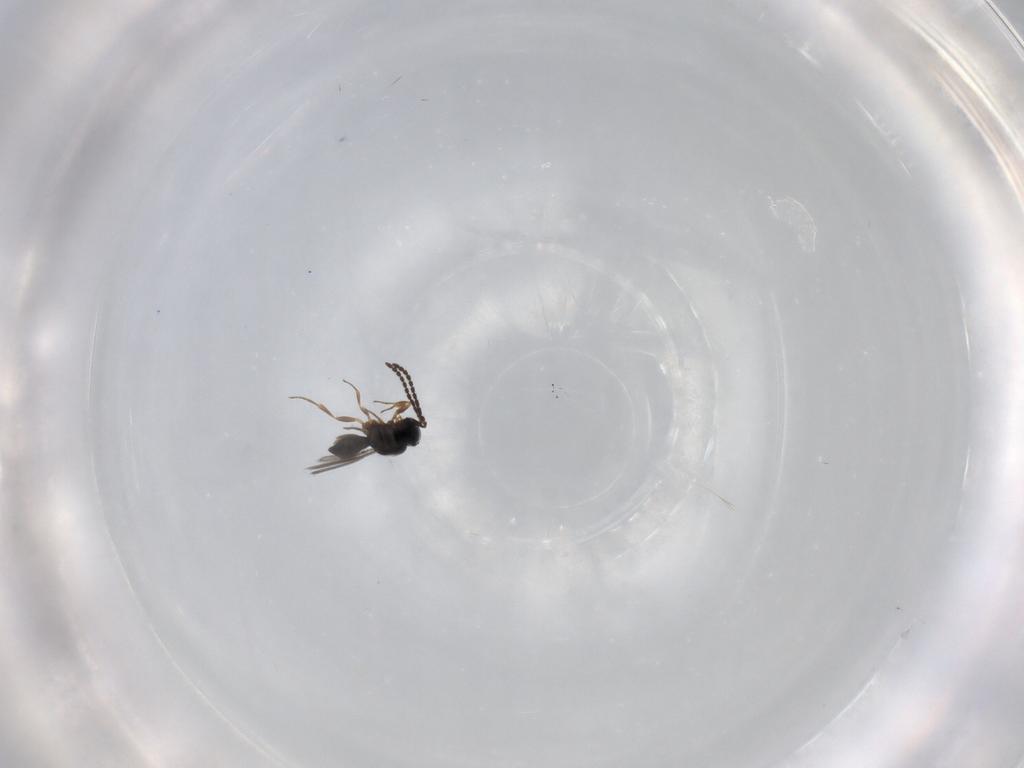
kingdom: Animalia
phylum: Arthropoda
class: Insecta
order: Hymenoptera
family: Scelionidae
